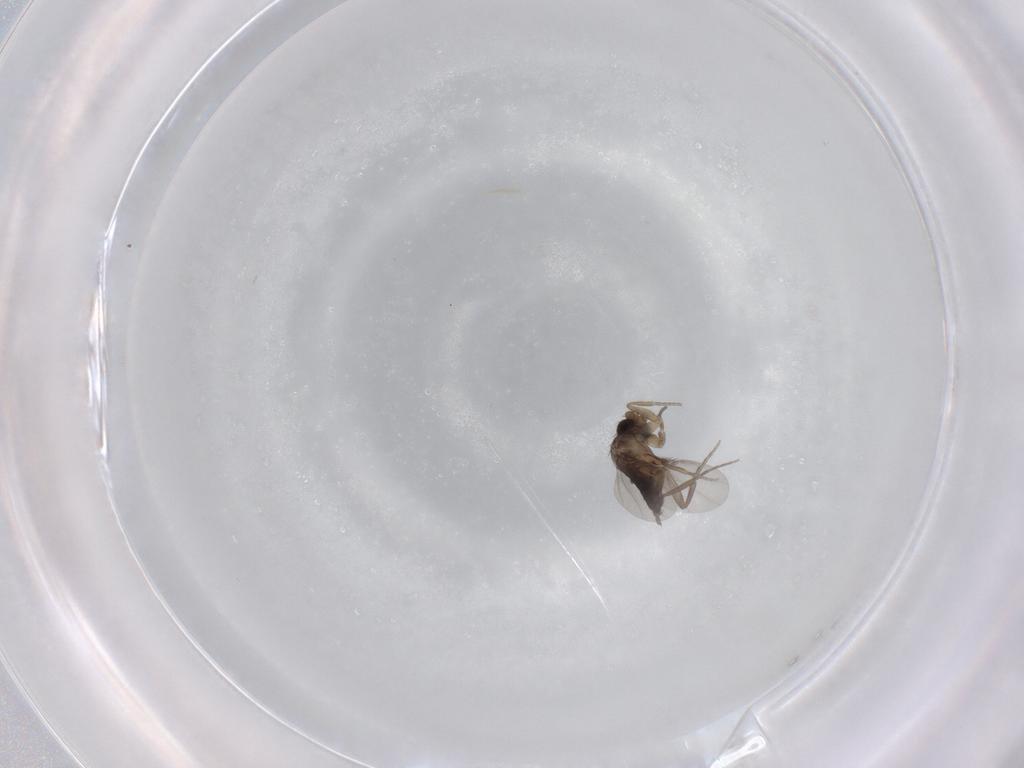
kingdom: Animalia
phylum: Arthropoda
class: Insecta
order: Diptera
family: Phoridae
